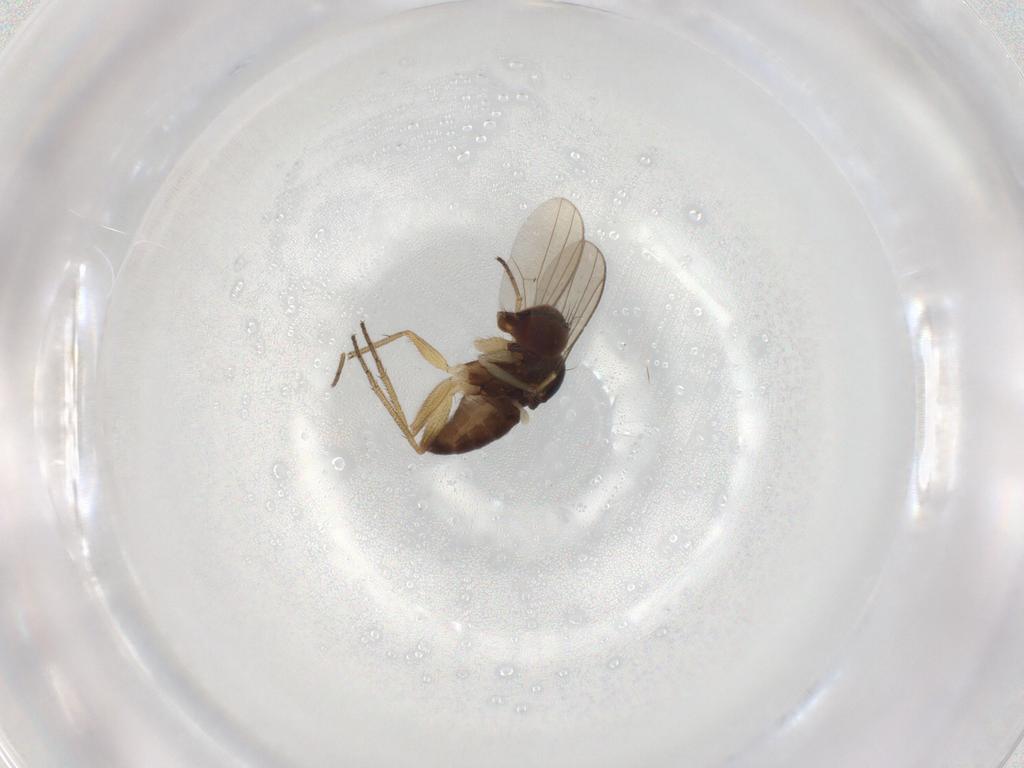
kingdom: Animalia
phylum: Arthropoda
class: Insecta
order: Diptera
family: Dolichopodidae
